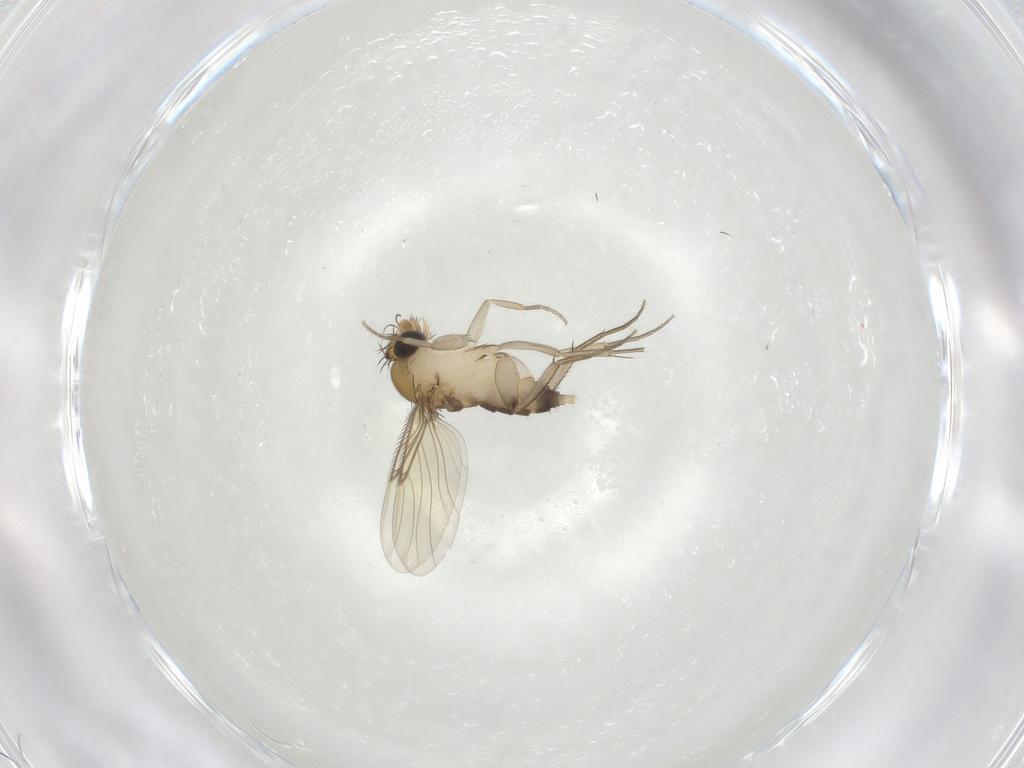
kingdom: Animalia
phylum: Arthropoda
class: Insecta
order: Diptera
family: Phoridae
